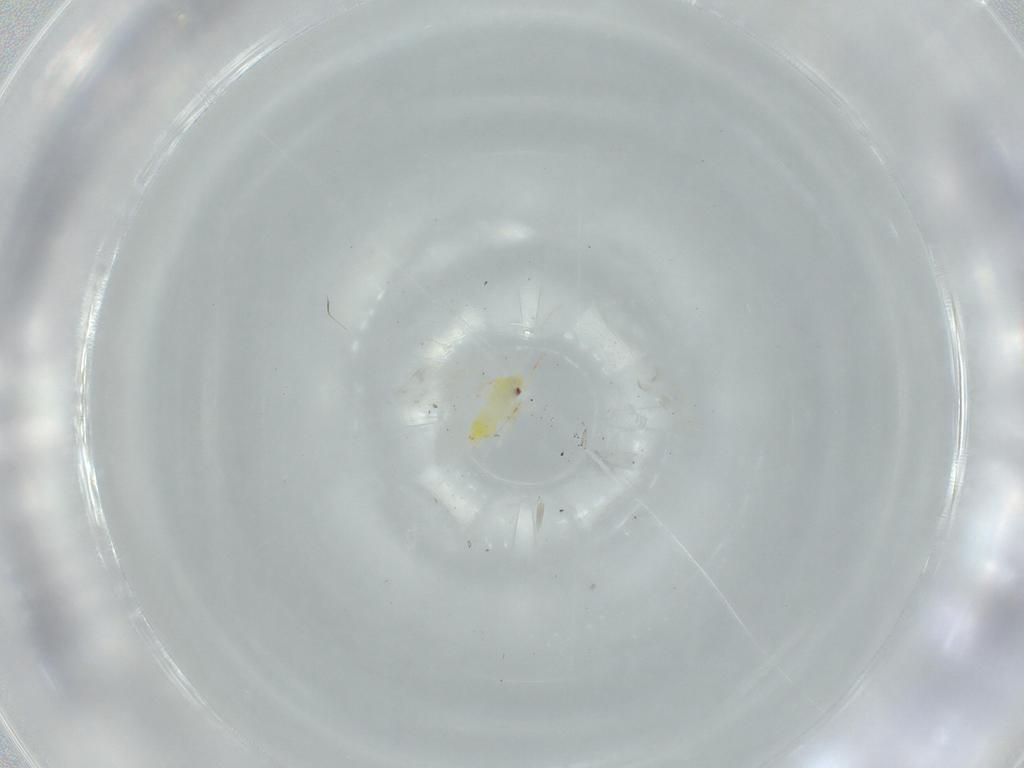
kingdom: Animalia
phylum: Arthropoda
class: Insecta
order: Hemiptera
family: Aleyrodidae
